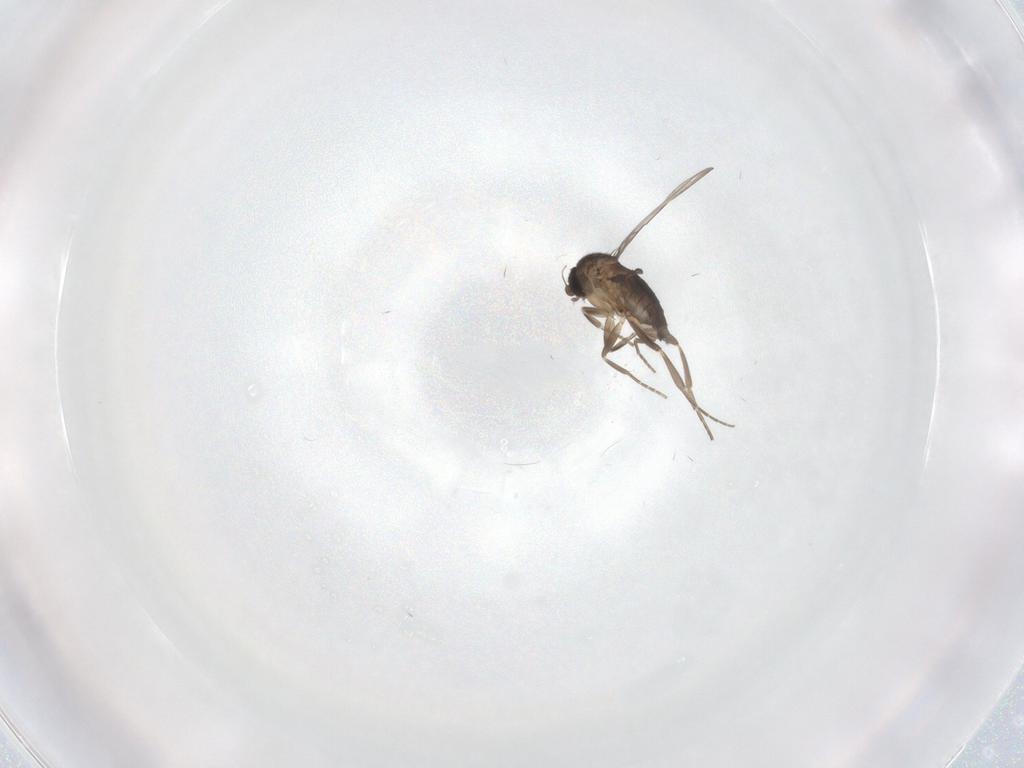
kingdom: Animalia
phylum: Arthropoda
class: Insecta
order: Diptera
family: Phoridae
